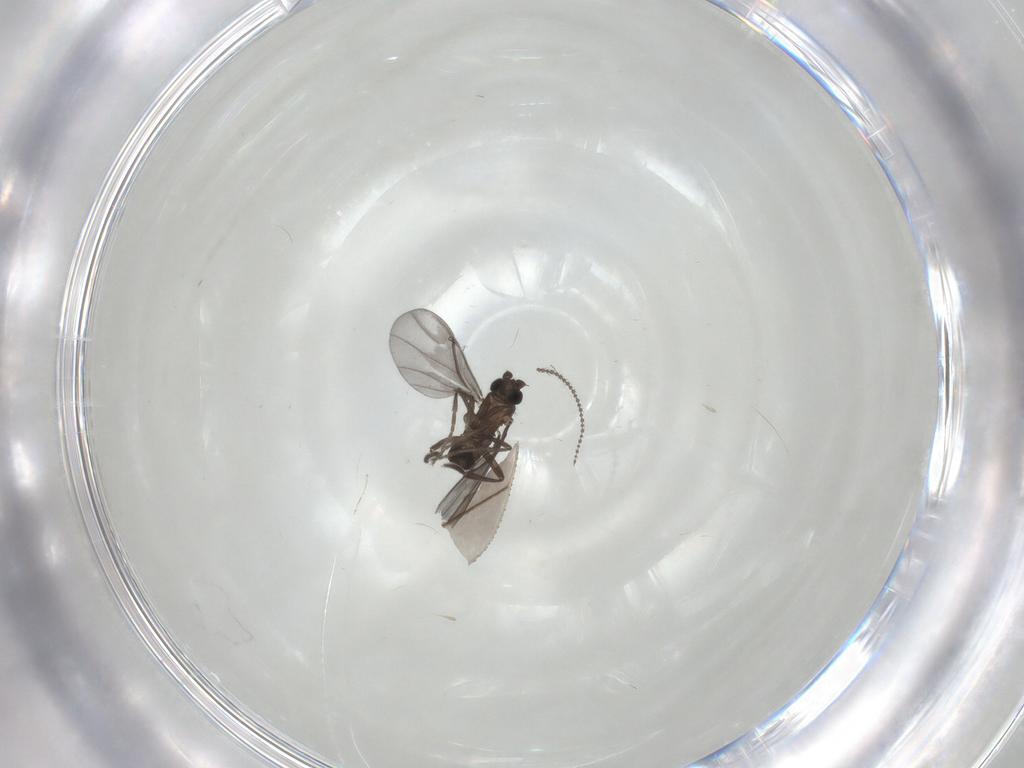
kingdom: Animalia
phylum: Arthropoda
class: Insecta
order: Diptera
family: Phoridae
